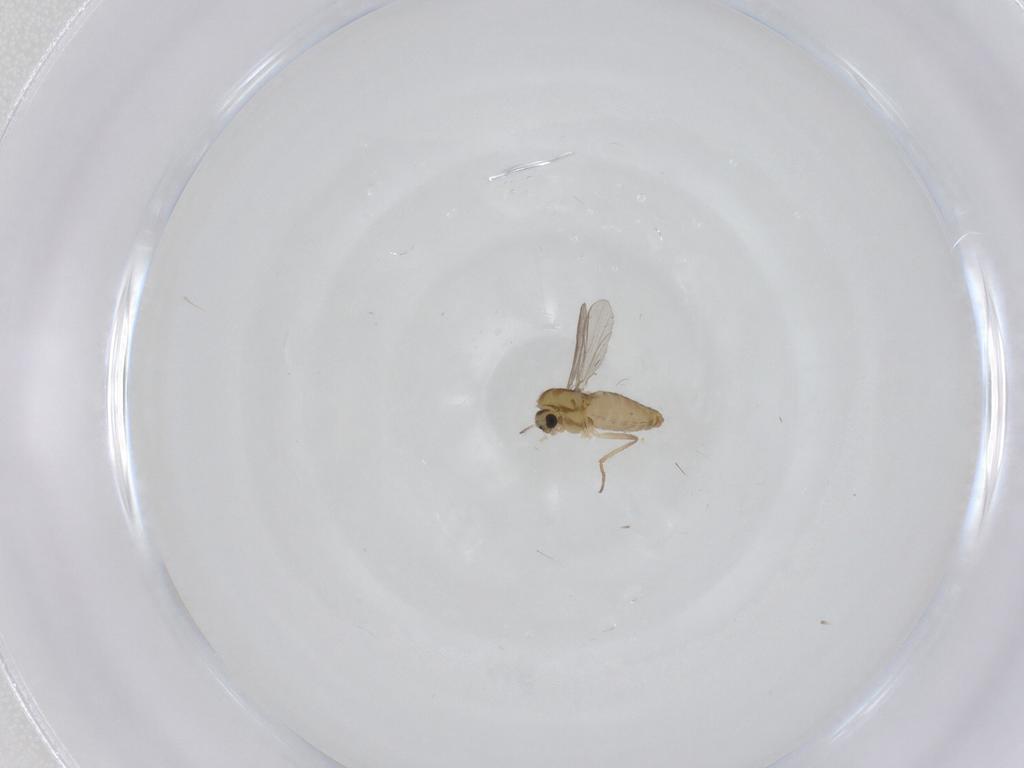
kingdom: Animalia
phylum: Arthropoda
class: Insecta
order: Diptera
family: Chironomidae
